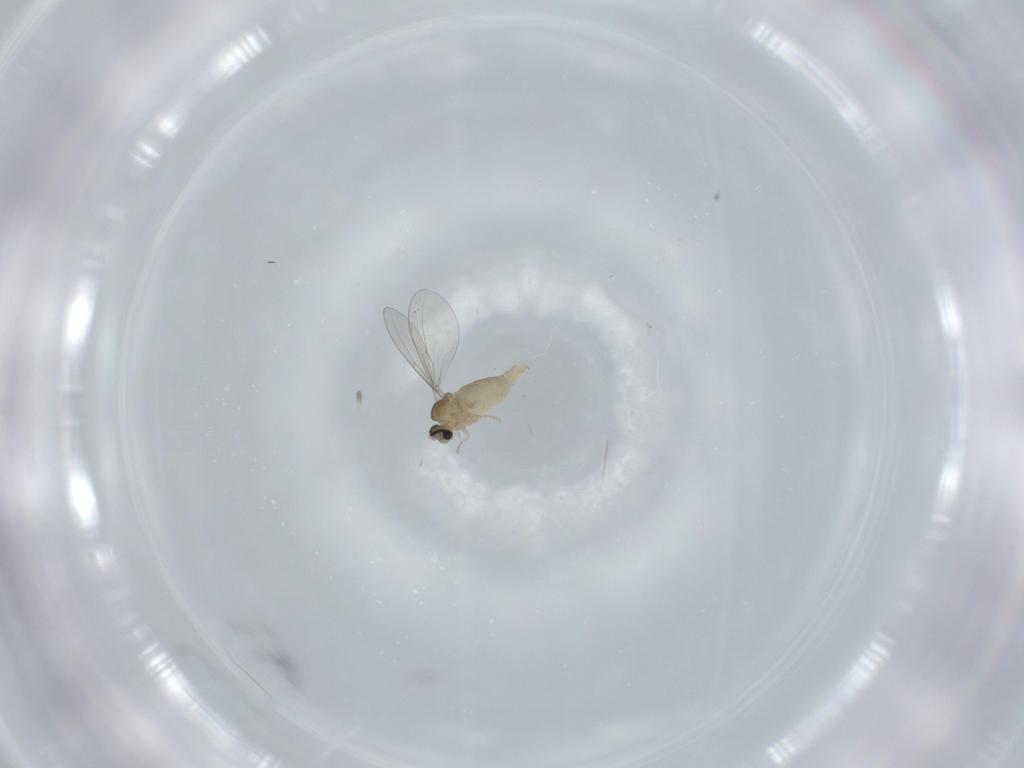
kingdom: Animalia
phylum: Arthropoda
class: Insecta
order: Diptera
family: Cecidomyiidae
